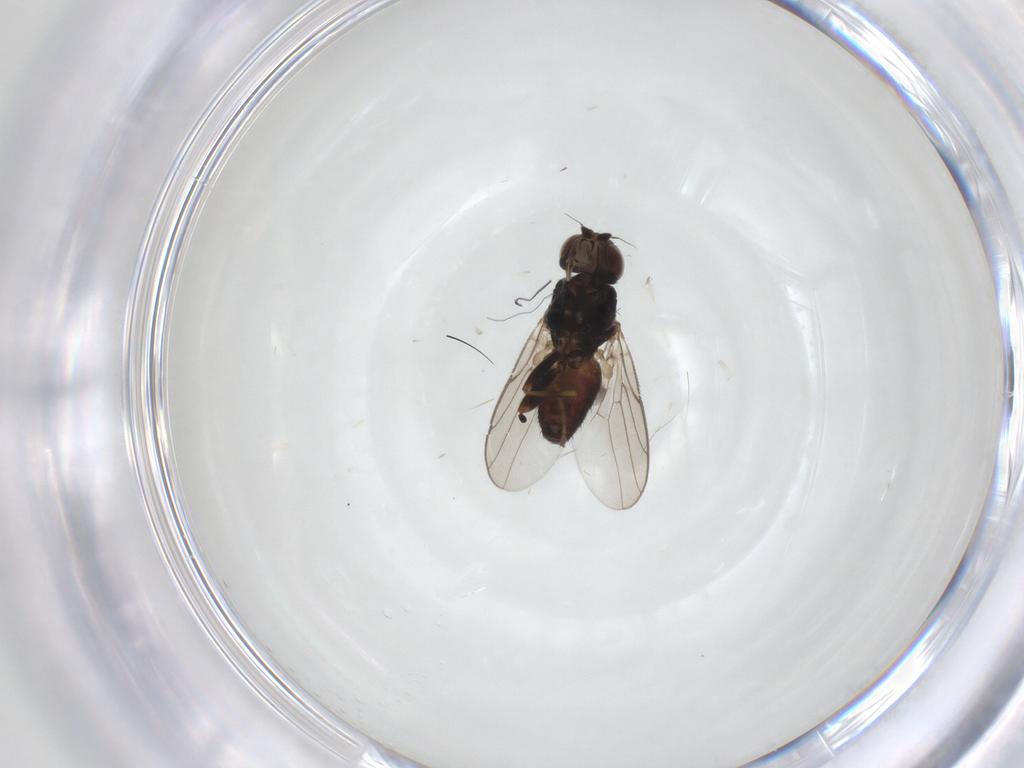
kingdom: Animalia
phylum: Arthropoda
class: Insecta
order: Diptera
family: Chloropidae
